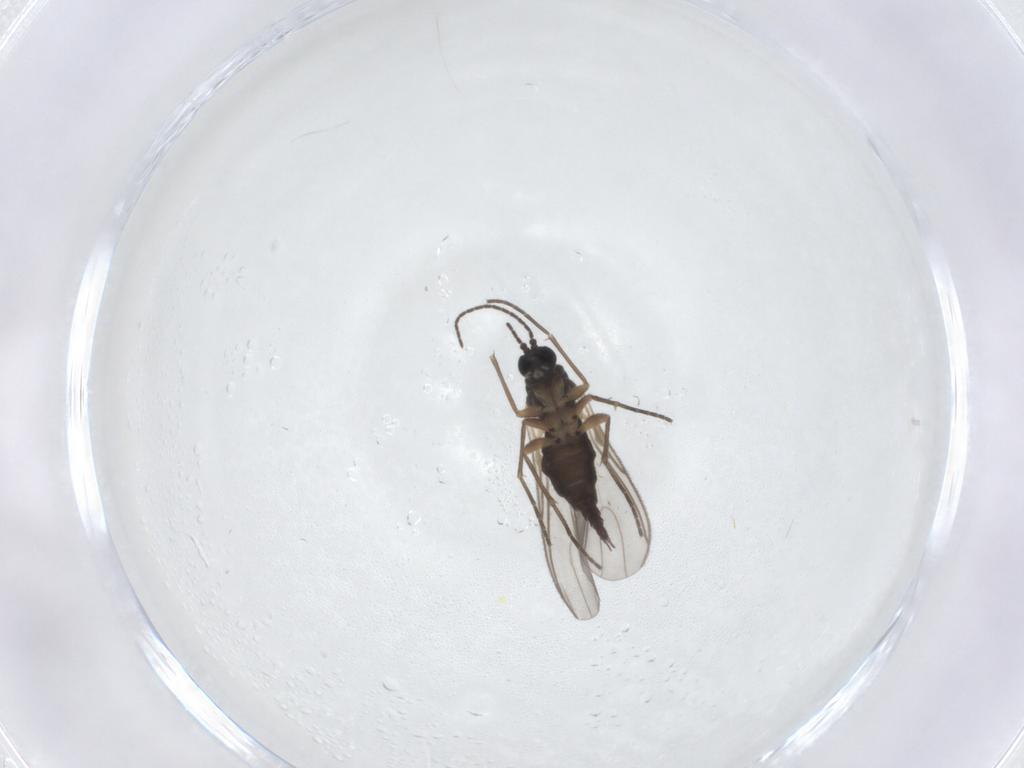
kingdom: Animalia
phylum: Arthropoda
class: Insecta
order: Diptera
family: Sciaridae
